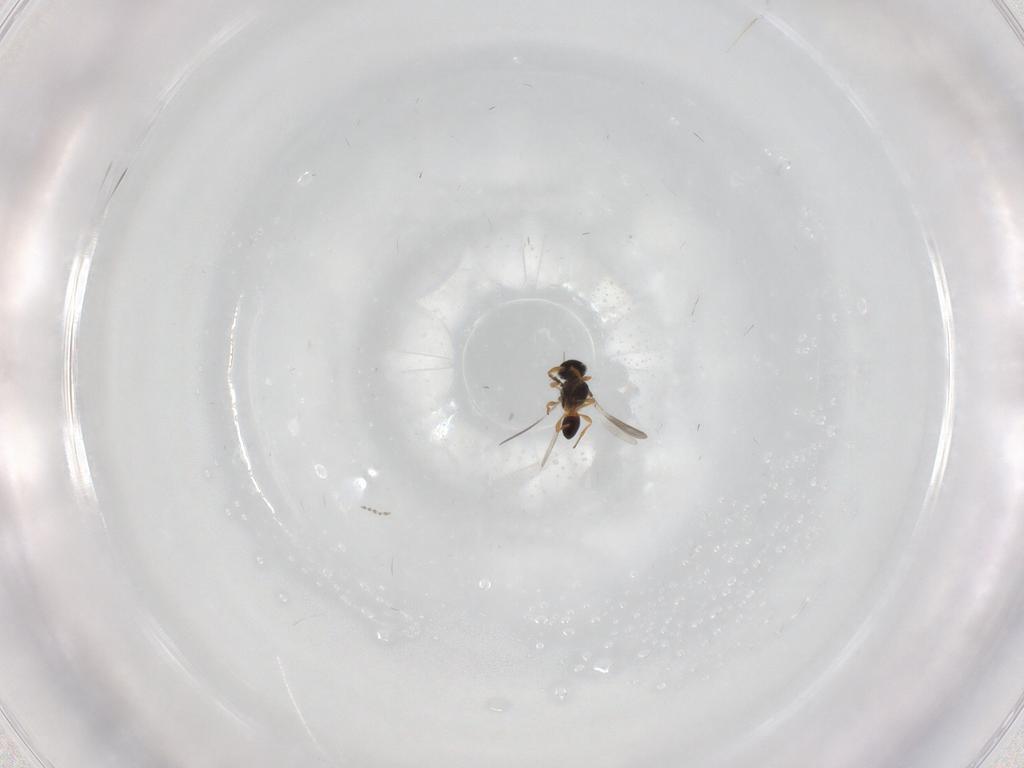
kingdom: Animalia
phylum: Arthropoda
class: Insecta
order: Hymenoptera
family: Platygastridae
